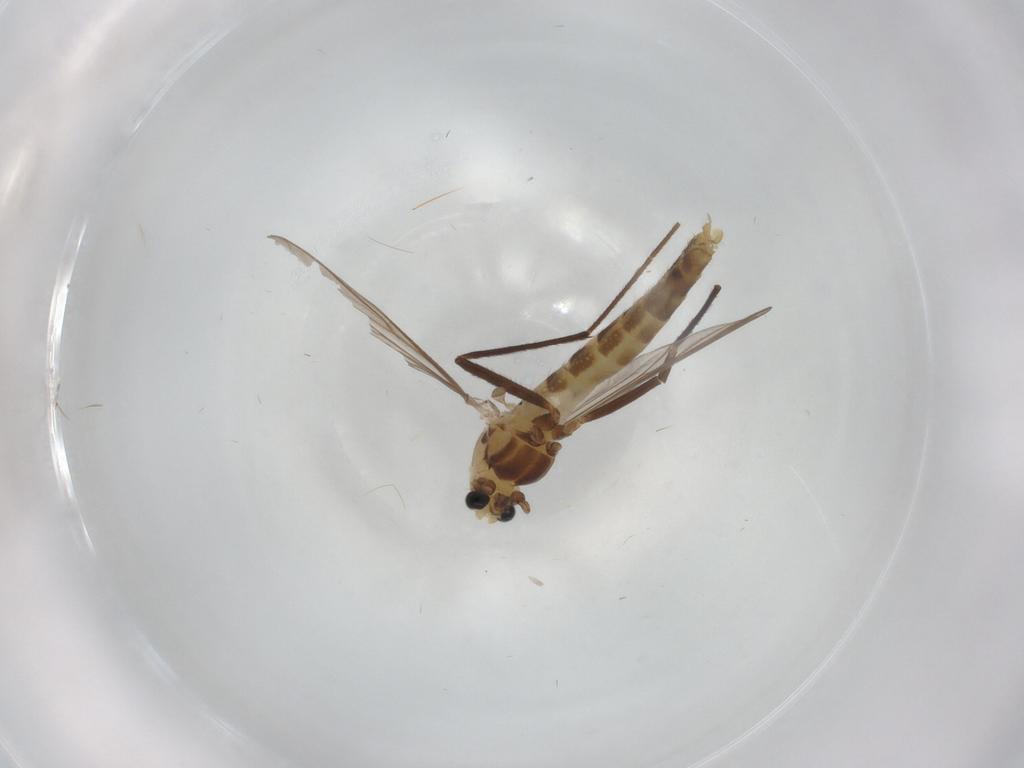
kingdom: Animalia
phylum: Arthropoda
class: Insecta
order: Diptera
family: Chironomidae
